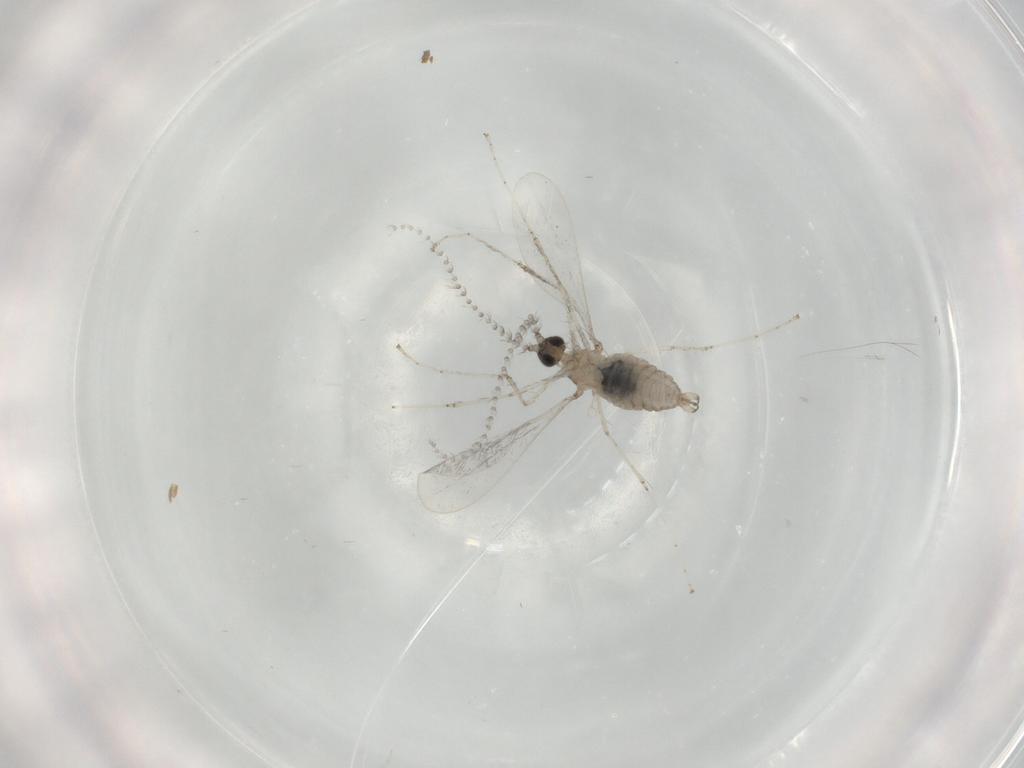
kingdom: Animalia
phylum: Arthropoda
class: Insecta
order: Diptera
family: Cecidomyiidae
